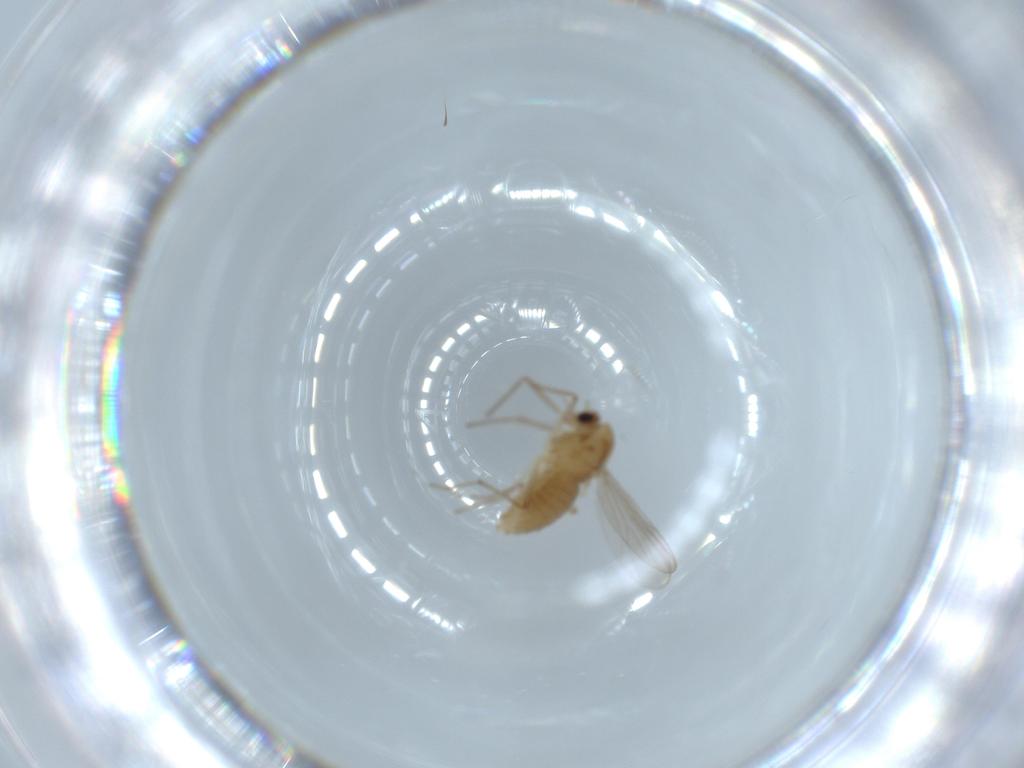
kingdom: Animalia
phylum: Arthropoda
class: Insecta
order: Diptera
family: Chironomidae
